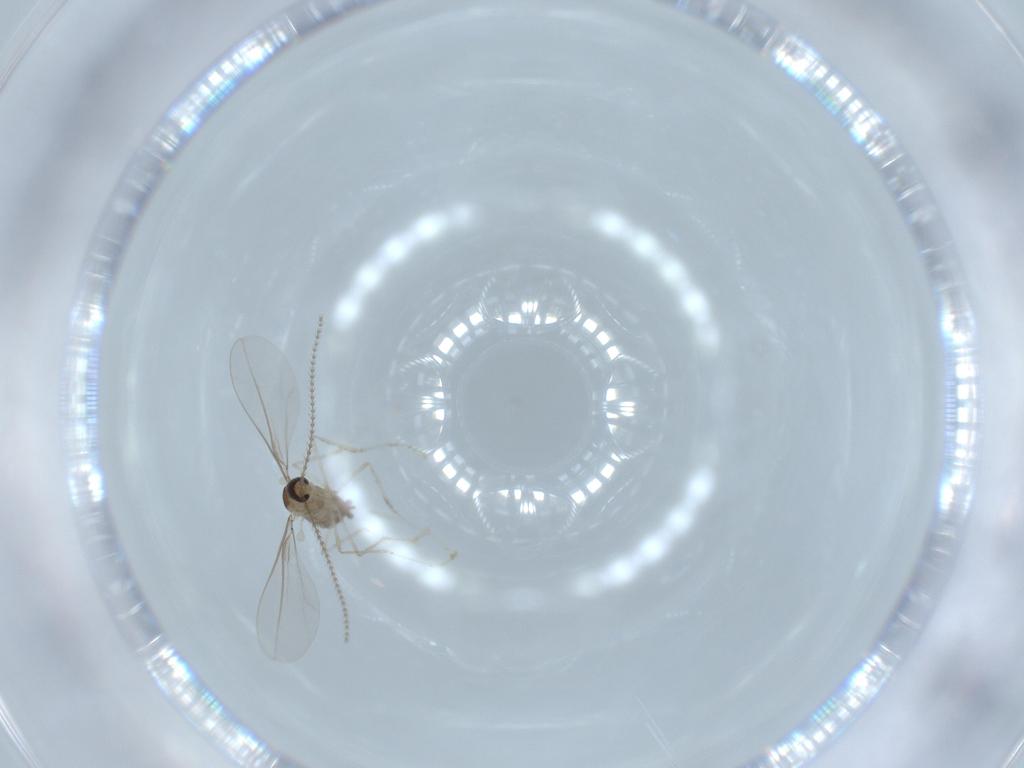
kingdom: Animalia
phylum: Arthropoda
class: Insecta
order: Diptera
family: Cecidomyiidae
